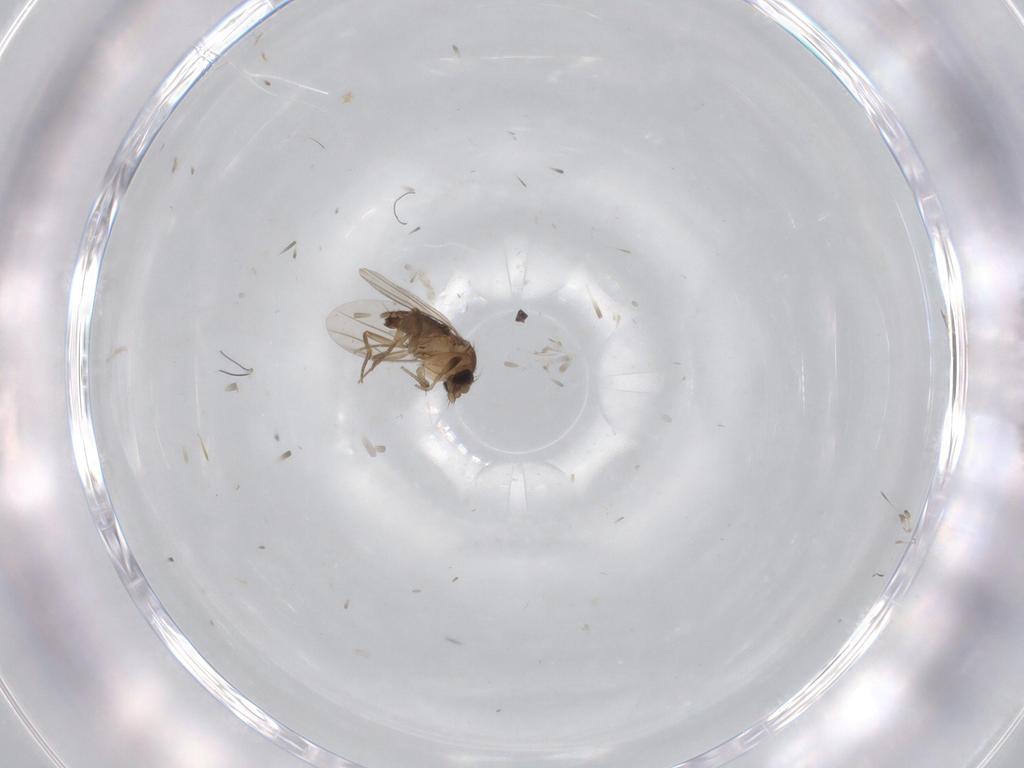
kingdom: Animalia
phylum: Arthropoda
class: Insecta
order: Diptera
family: Phoridae
